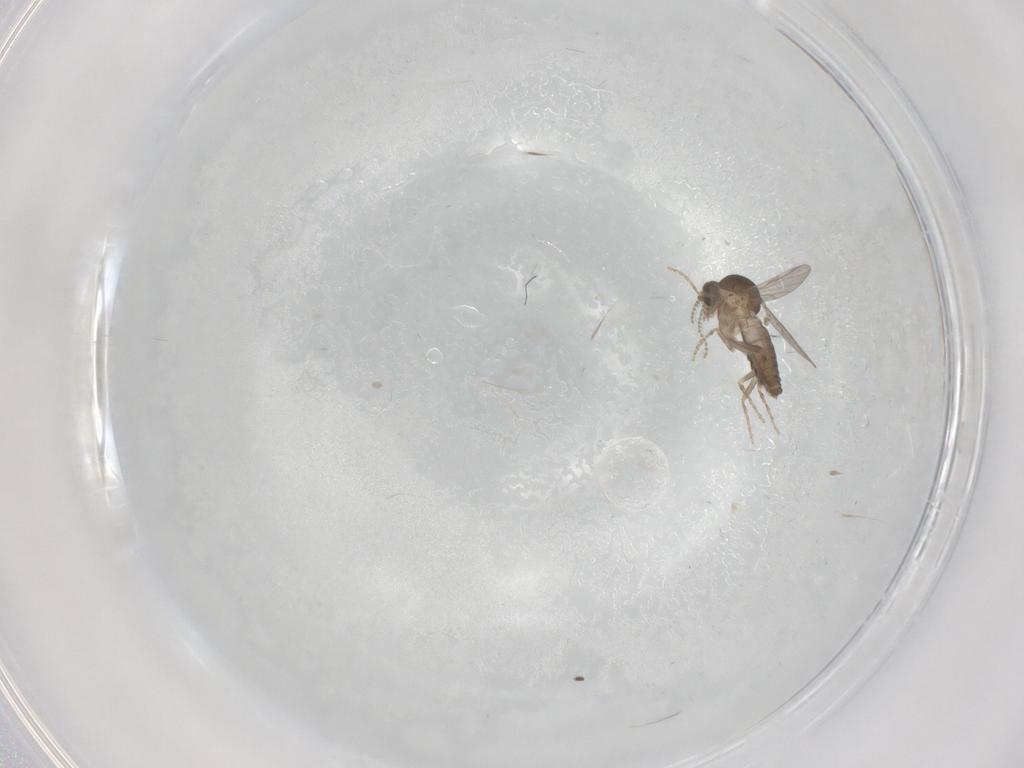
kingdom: Animalia
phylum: Arthropoda
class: Insecta
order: Diptera
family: Ceratopogonidae
